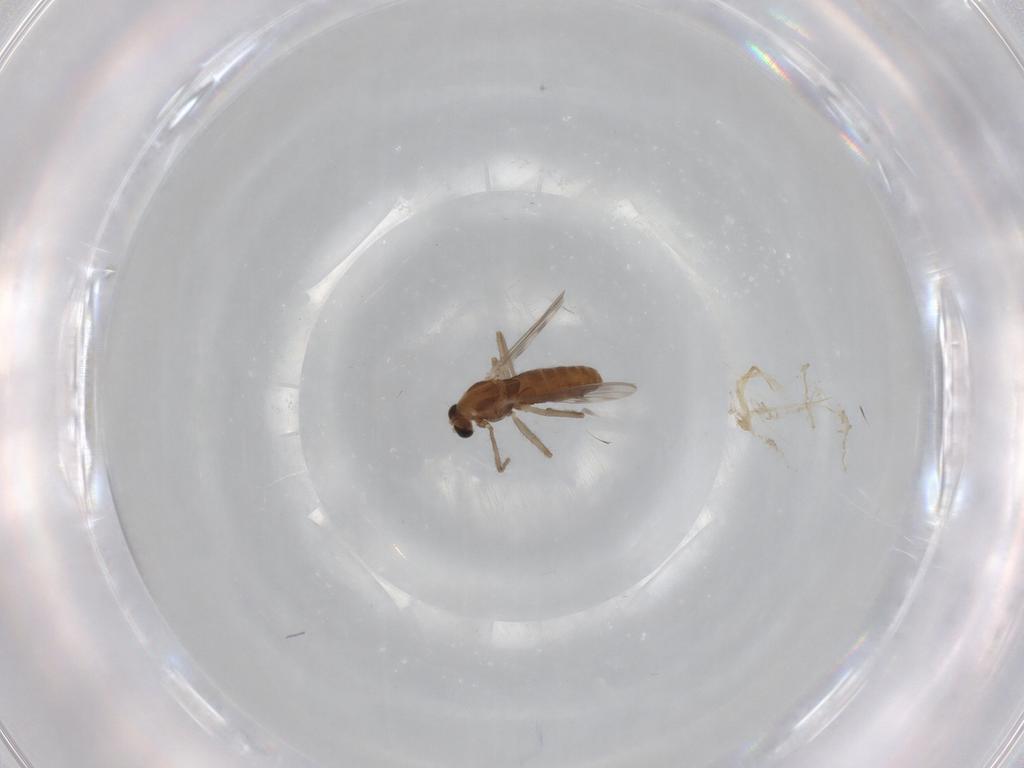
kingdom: Animalia
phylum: Arthropoda
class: Insecta
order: Diptera
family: Chironomidae
